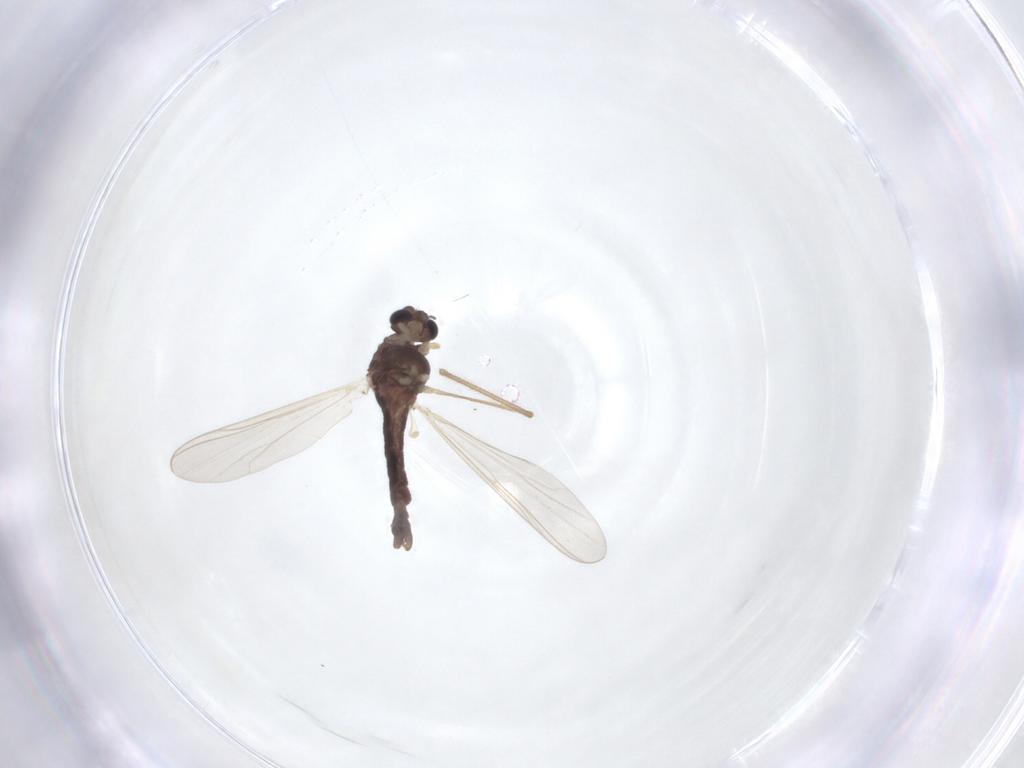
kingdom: Animalia
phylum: Arthropoda
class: Insecta
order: Diptera
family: Chironomidae
